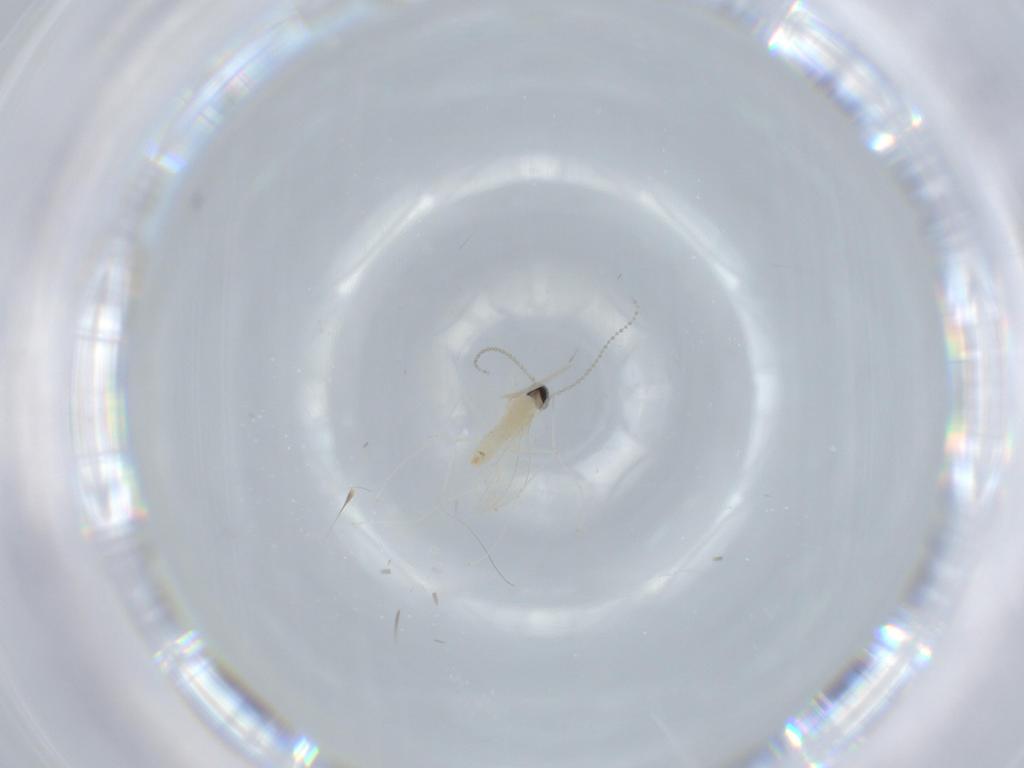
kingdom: Animalia
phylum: Arthropoda
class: Insecta
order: Diptera
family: Cecidomyiidae
